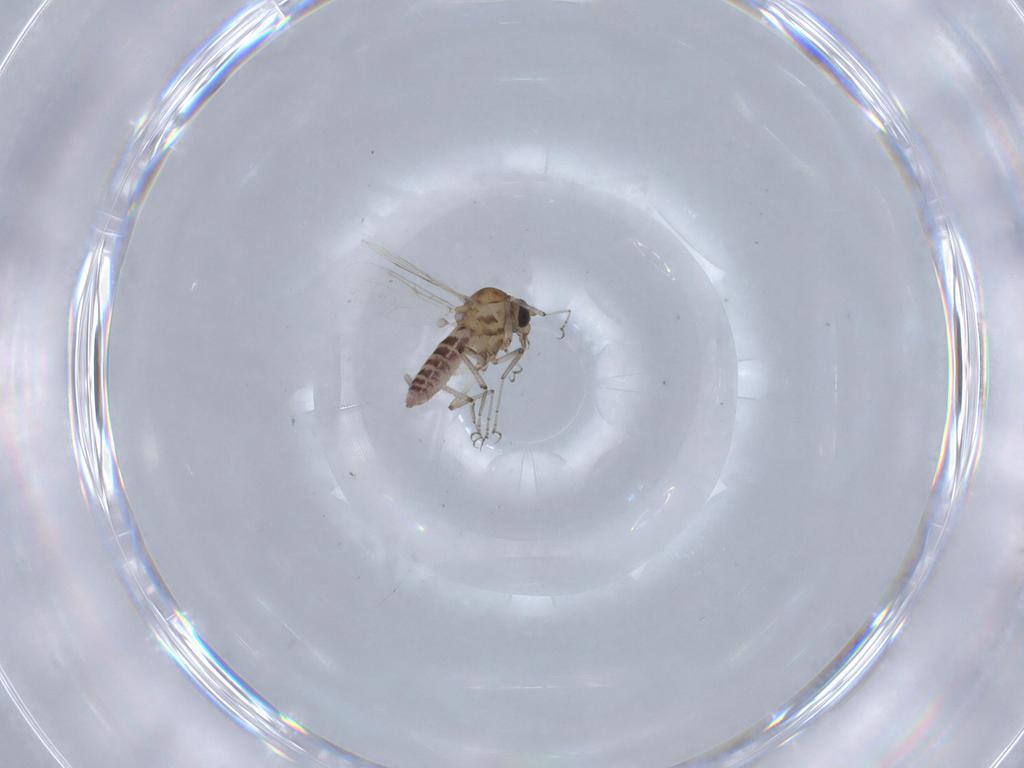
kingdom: Animalia
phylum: Arthropoda
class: Insecta
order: Diptera
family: Ceratopogonidae
